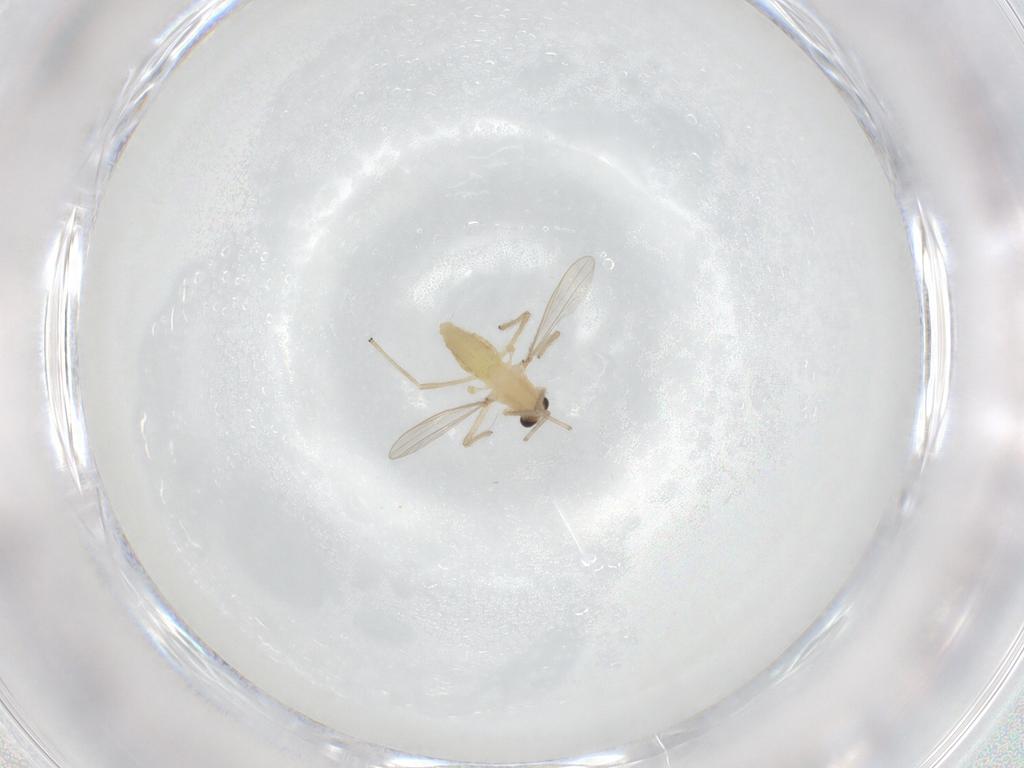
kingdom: Animalia
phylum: Arthropoda
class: Insecta
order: Diptera
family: Chironomidae
